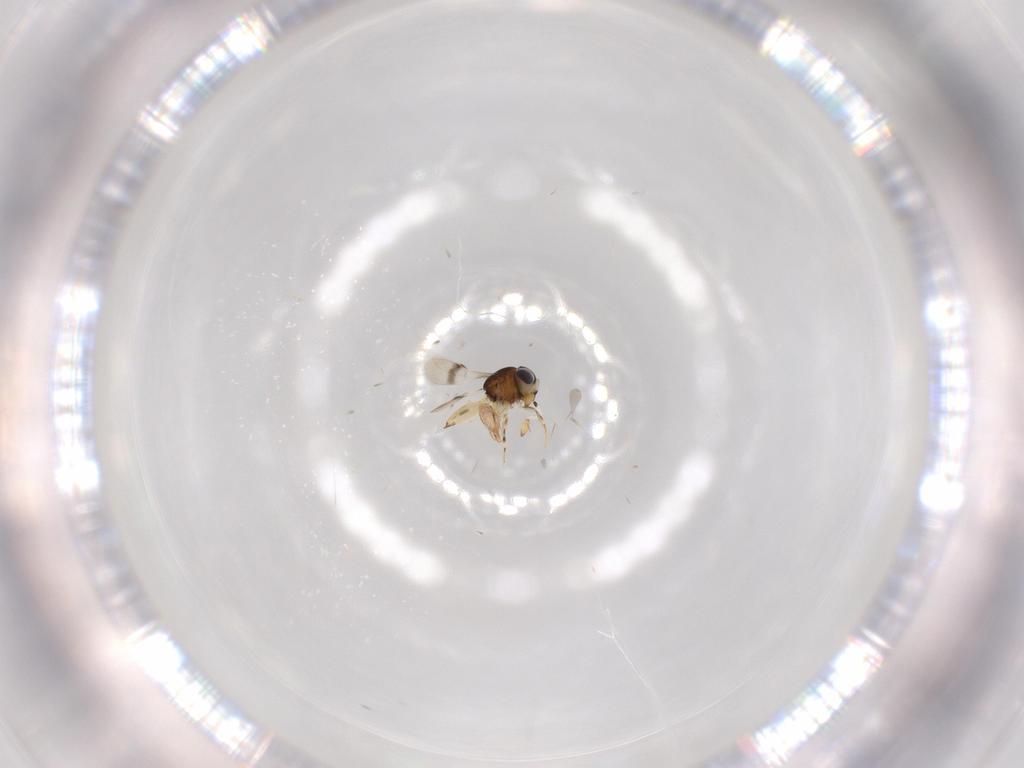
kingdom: Animalia
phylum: Arthropoda
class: Insecta
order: Hymenoptera
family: Scelionidae
